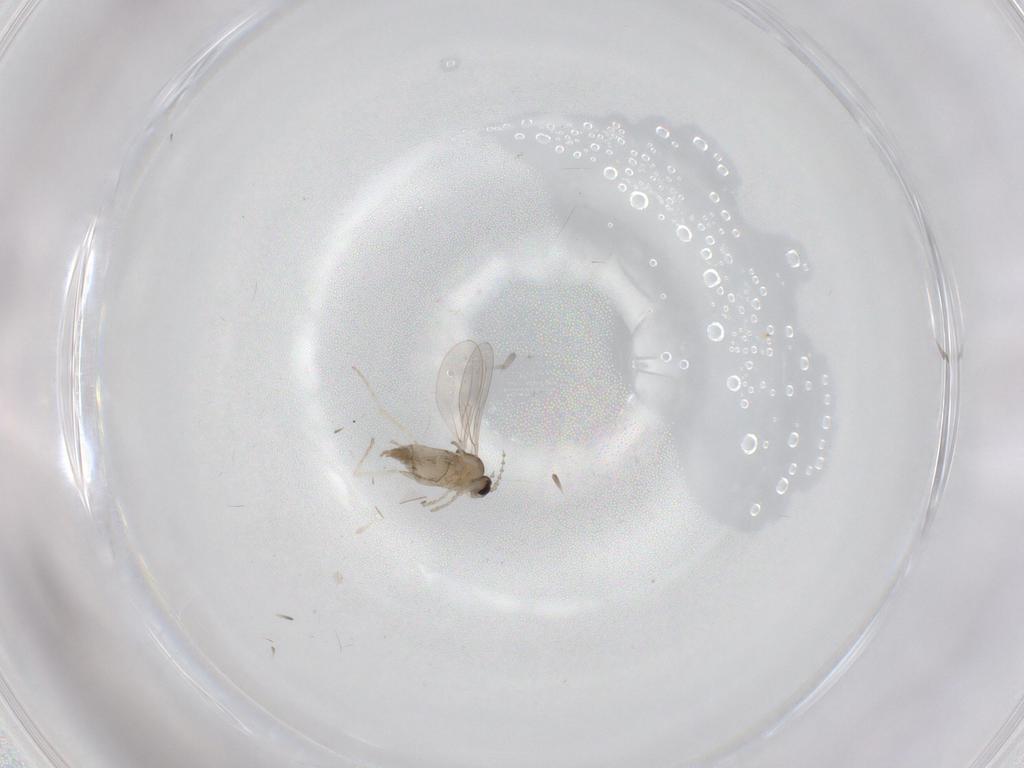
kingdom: Animalia
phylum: Arthropoda
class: Insecta
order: Diptera
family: Cecidomyiidae
